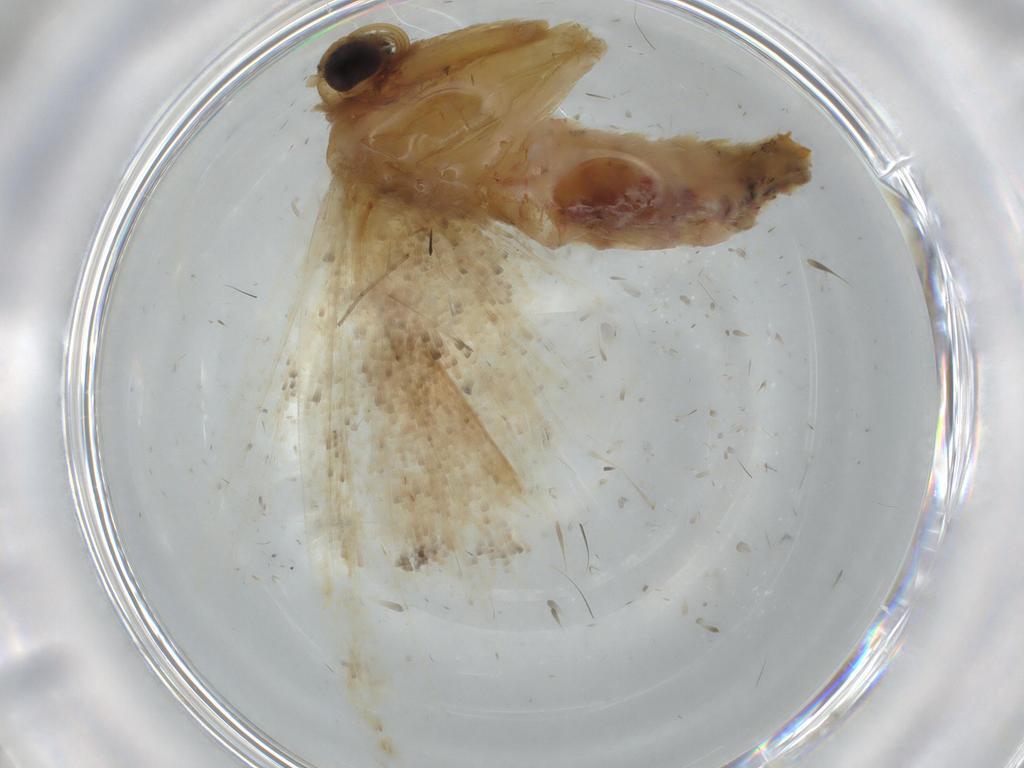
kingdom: Animalia
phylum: Arthropoda
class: Insecta
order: Lepidoptera
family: Geometridae
